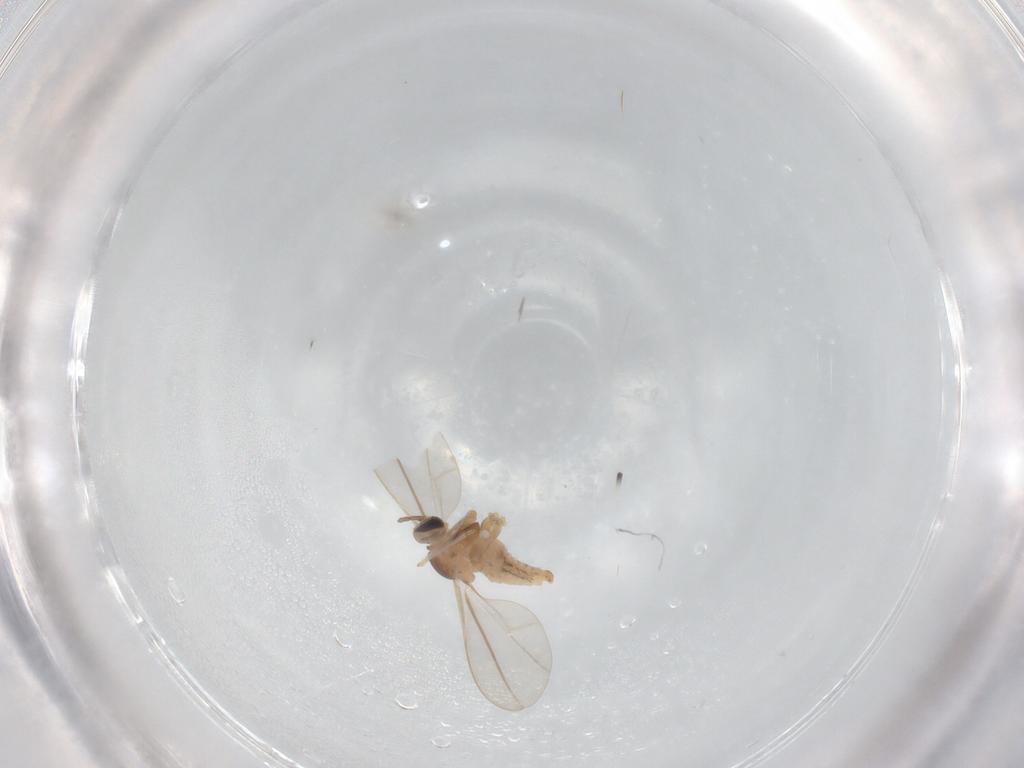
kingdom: Animalia
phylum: Arthropoda
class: Insecta
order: Diptera
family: Cecidomyiidae
